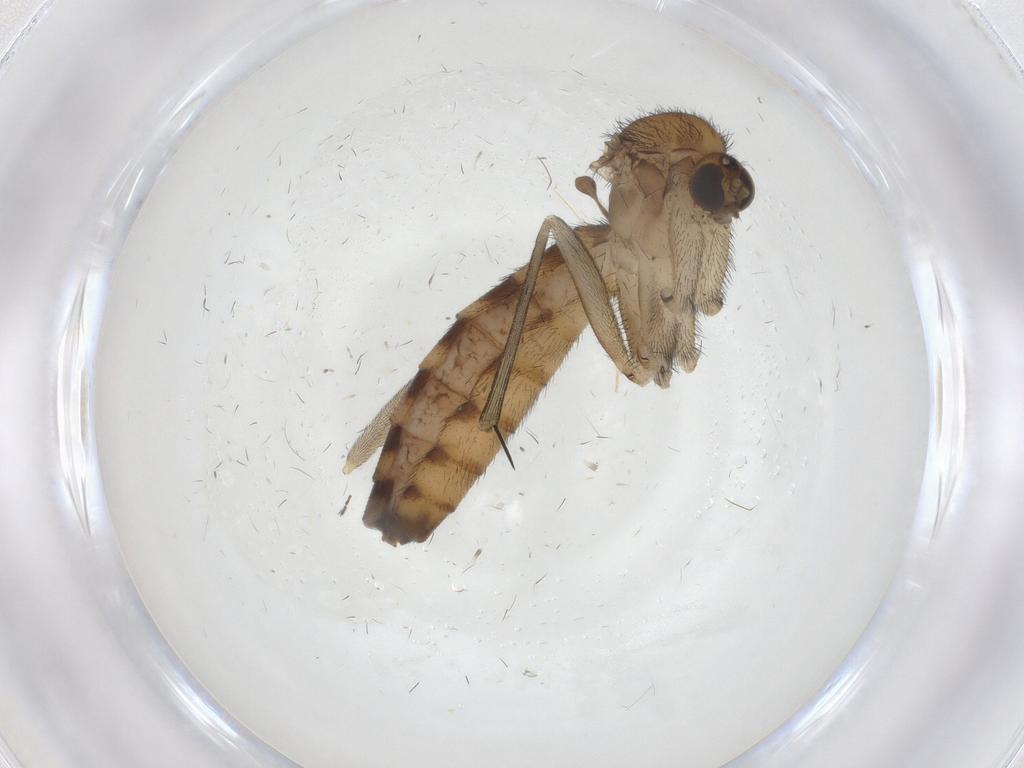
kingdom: Animalia
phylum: Arthropoda
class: Insecta
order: Diptera
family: Keroplatidae
